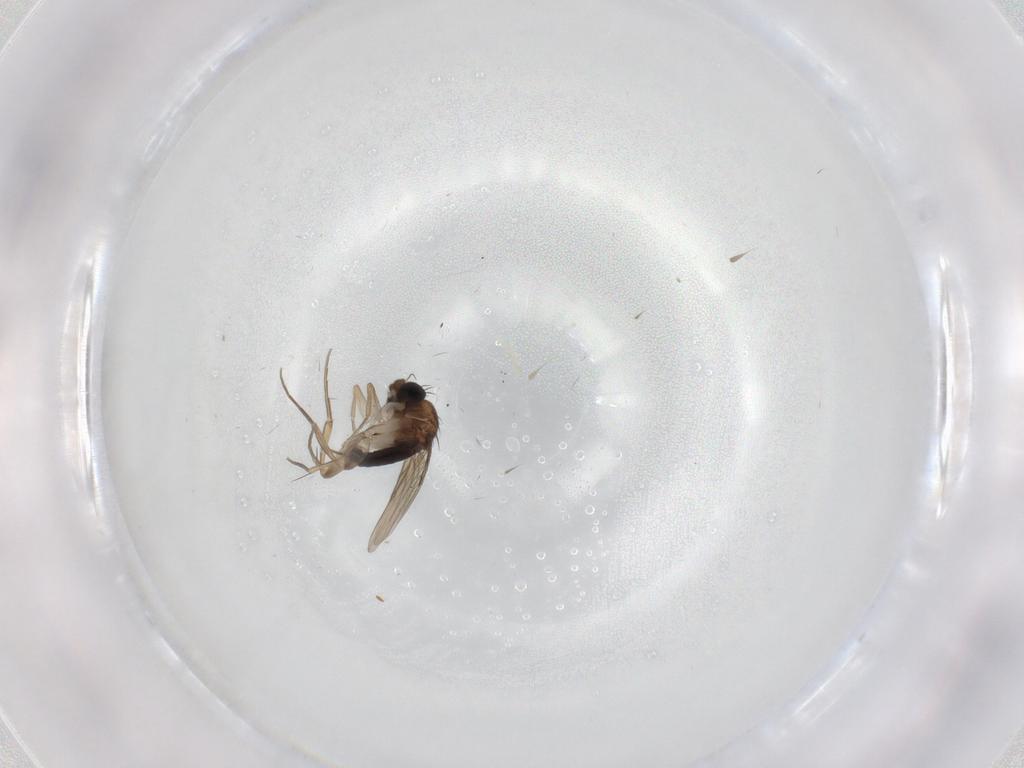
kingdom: Animalia
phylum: Arthropoda
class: Insecta
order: Diptera
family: Phoridae
